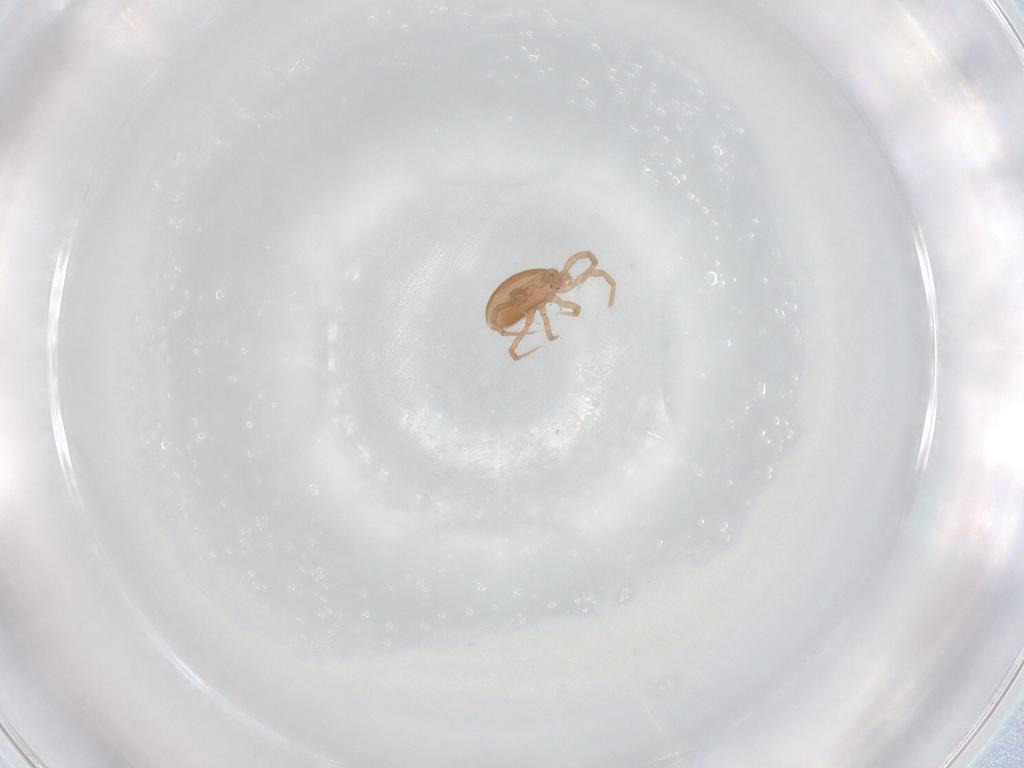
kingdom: Animalia
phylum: Arthropoda
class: Arachnida
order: Mesostigmata
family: Parasitidae
